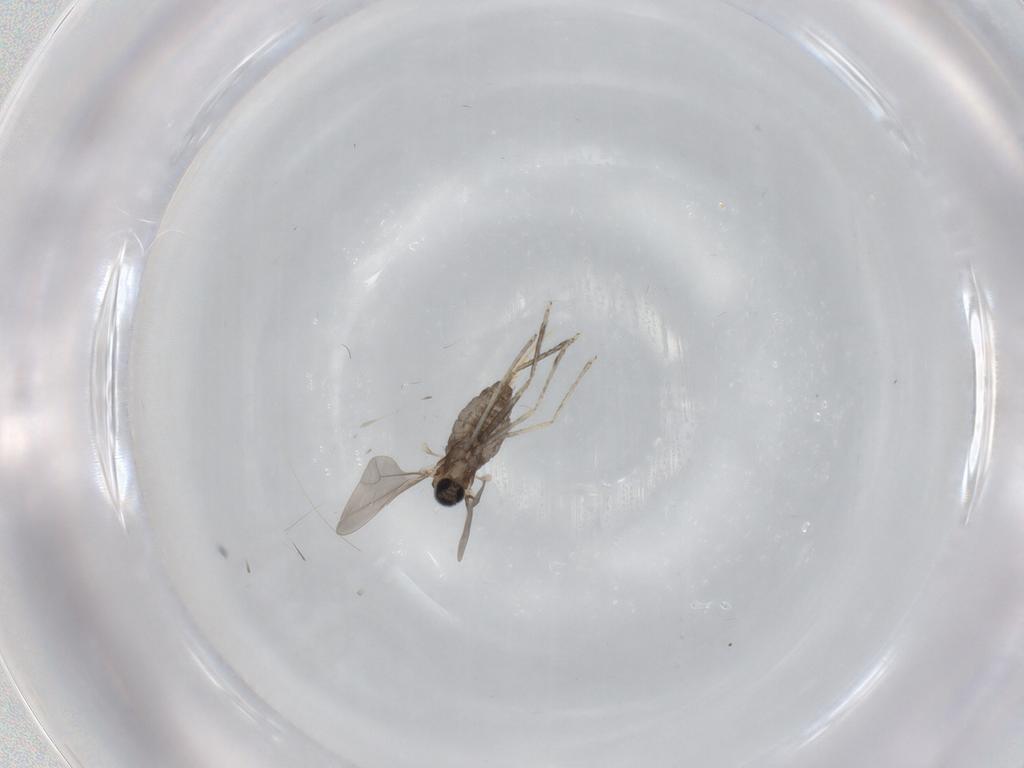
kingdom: Animalia
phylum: Arthropoda
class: Insecta
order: Diptera
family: Cecidomyiidae
